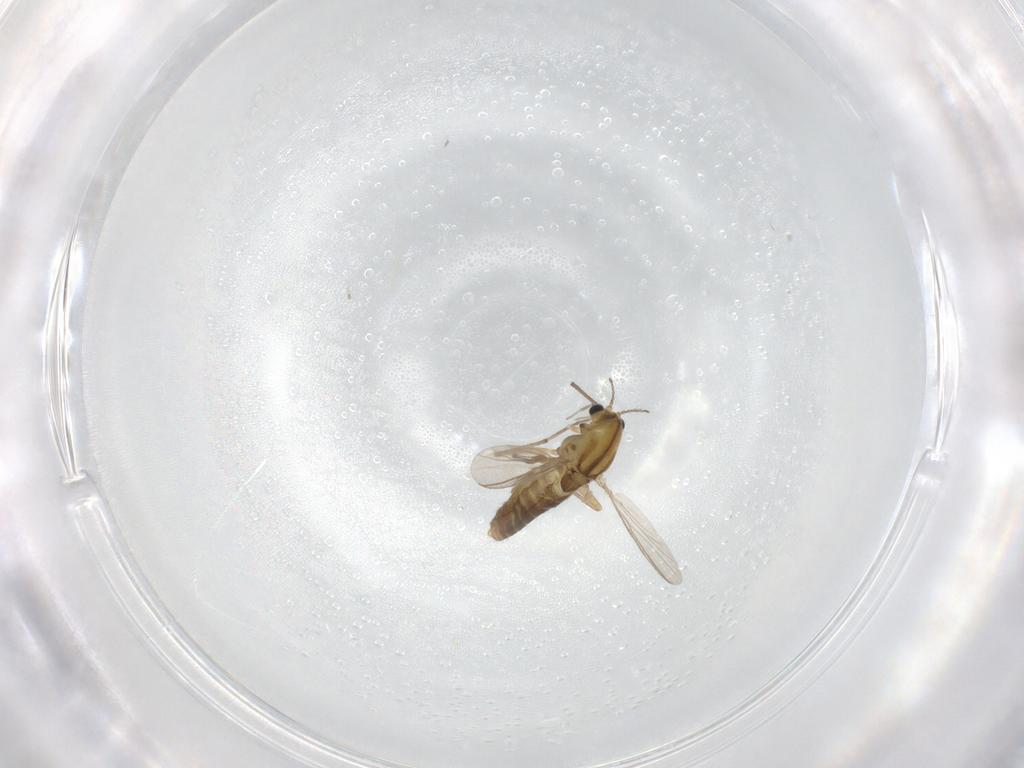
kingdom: Animalia
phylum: Arthropoda
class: Insecta
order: Diptera
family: Chironomidae
